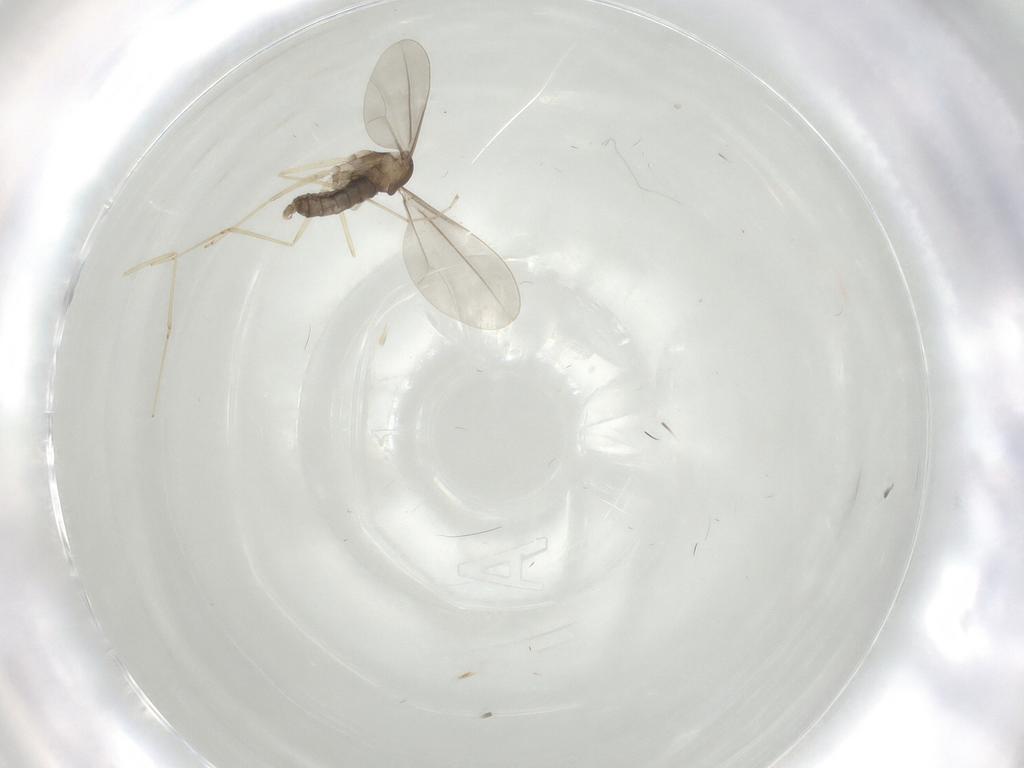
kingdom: Animalia
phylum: Arthropoda
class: Insecta
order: Diptera
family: Cecidomyiidae
